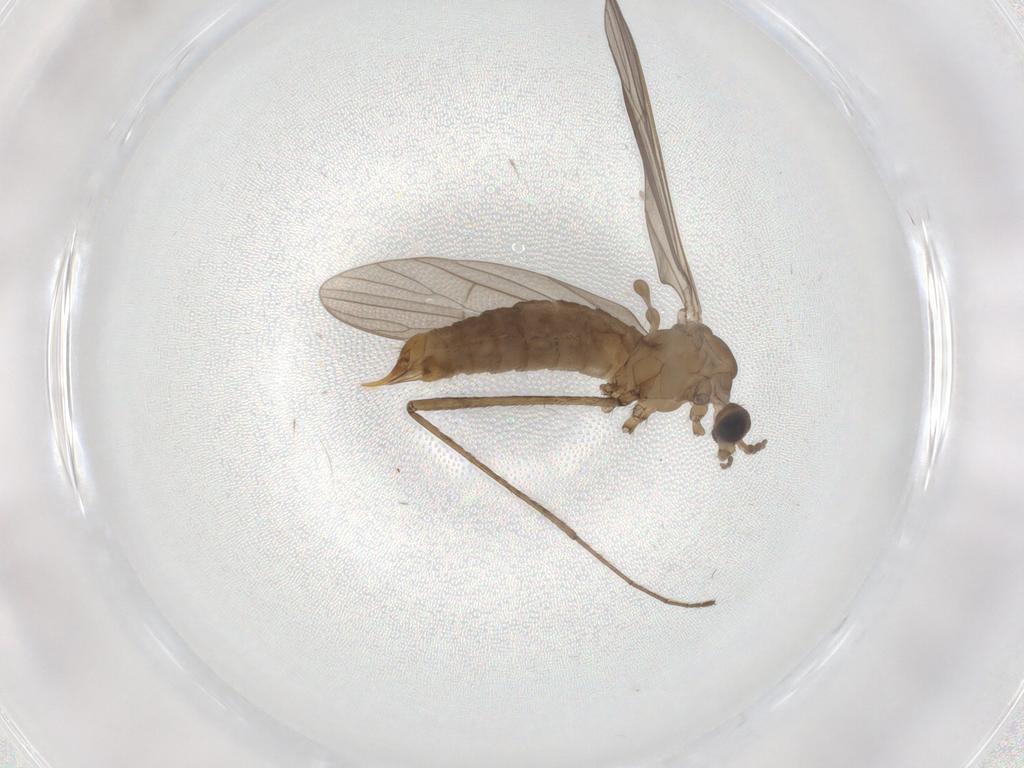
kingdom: Animalia
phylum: Arthropoda
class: Insecta
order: Diptera
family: Limoniidae
